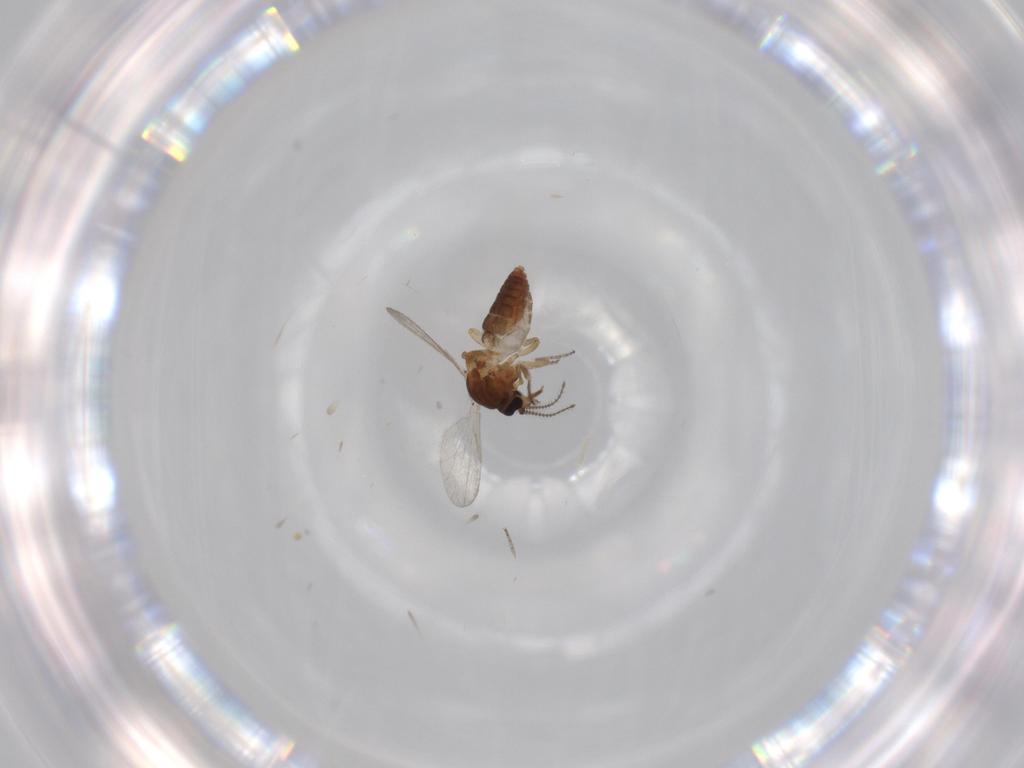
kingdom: Animalia
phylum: Arthropoda
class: Insecta
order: Diptera
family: Ceratopogonidae
